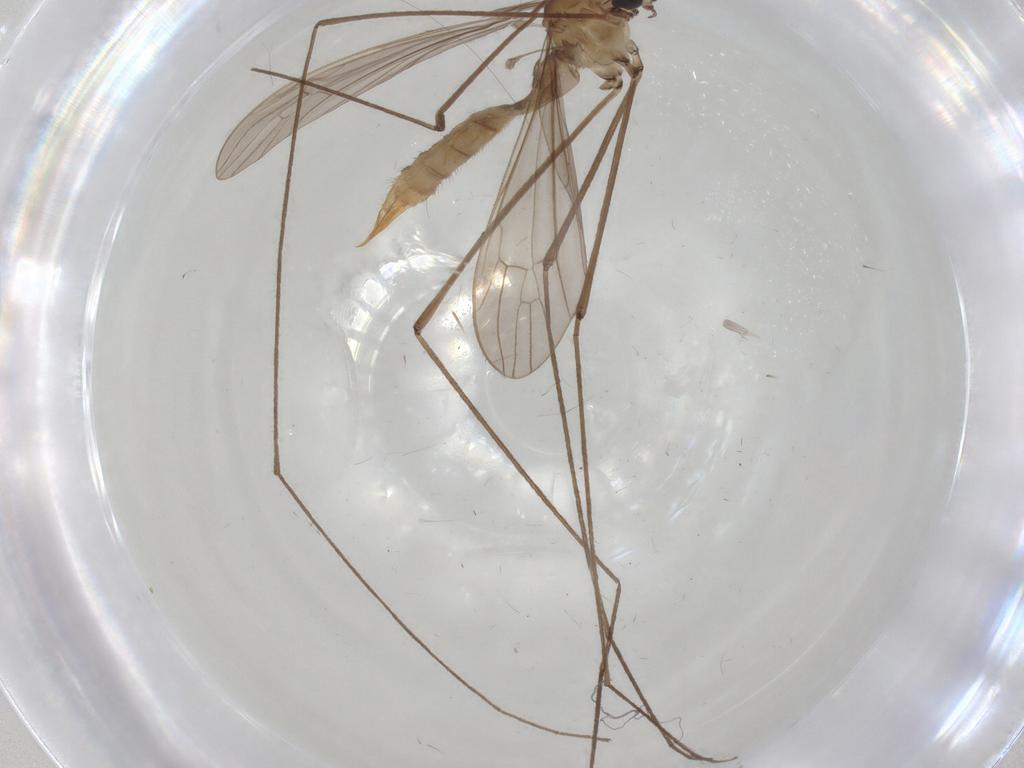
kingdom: Animalia
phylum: Arthropoda
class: Insecta
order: Diptera
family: Limoniidae
